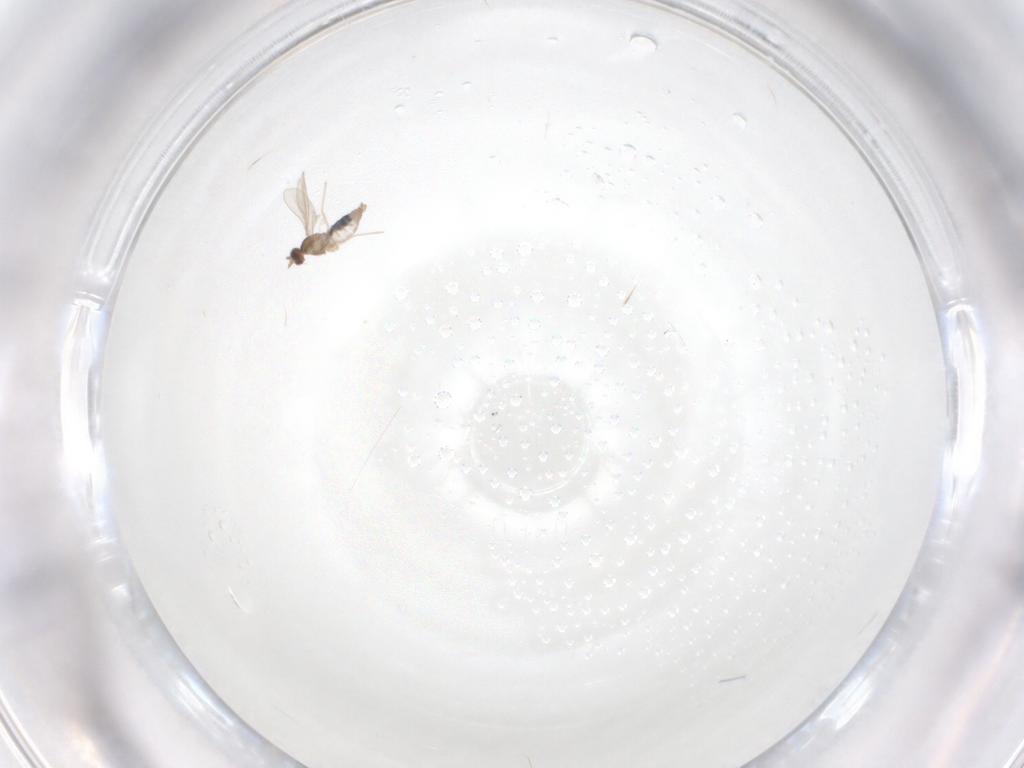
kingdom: Animalia
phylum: Arthropoda
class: Insecta
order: Diptera
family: Cecidomyiidae
